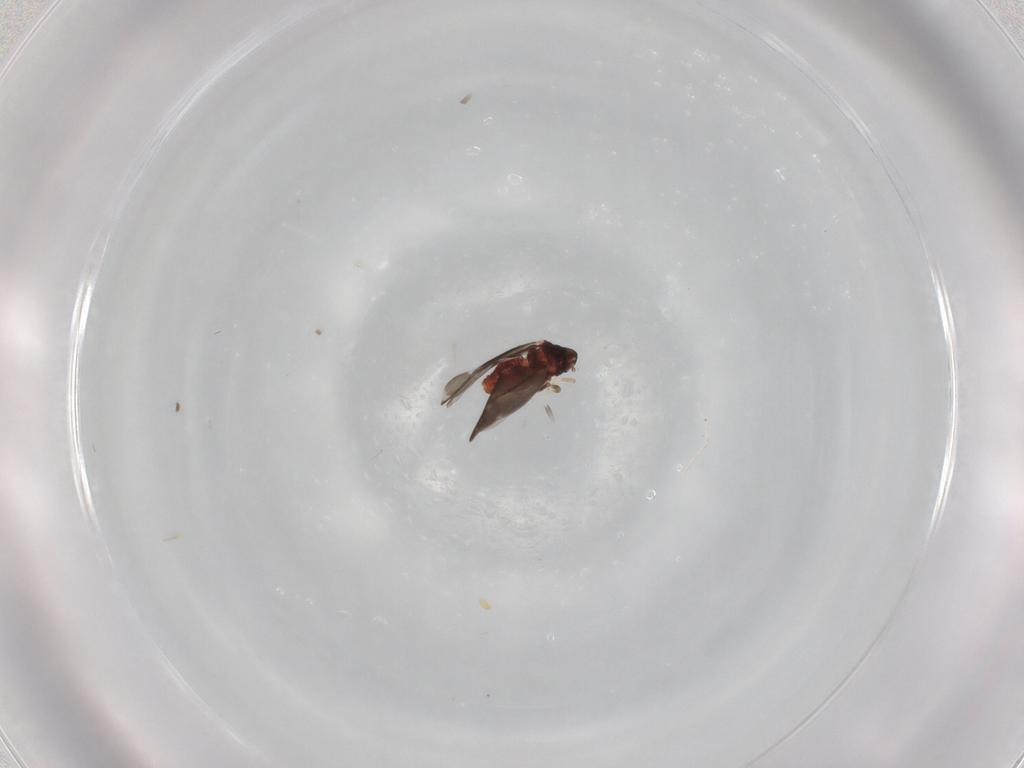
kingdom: Animalia
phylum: Arthropoda
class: Insecta
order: Hemiptera
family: Aleyrodidae
